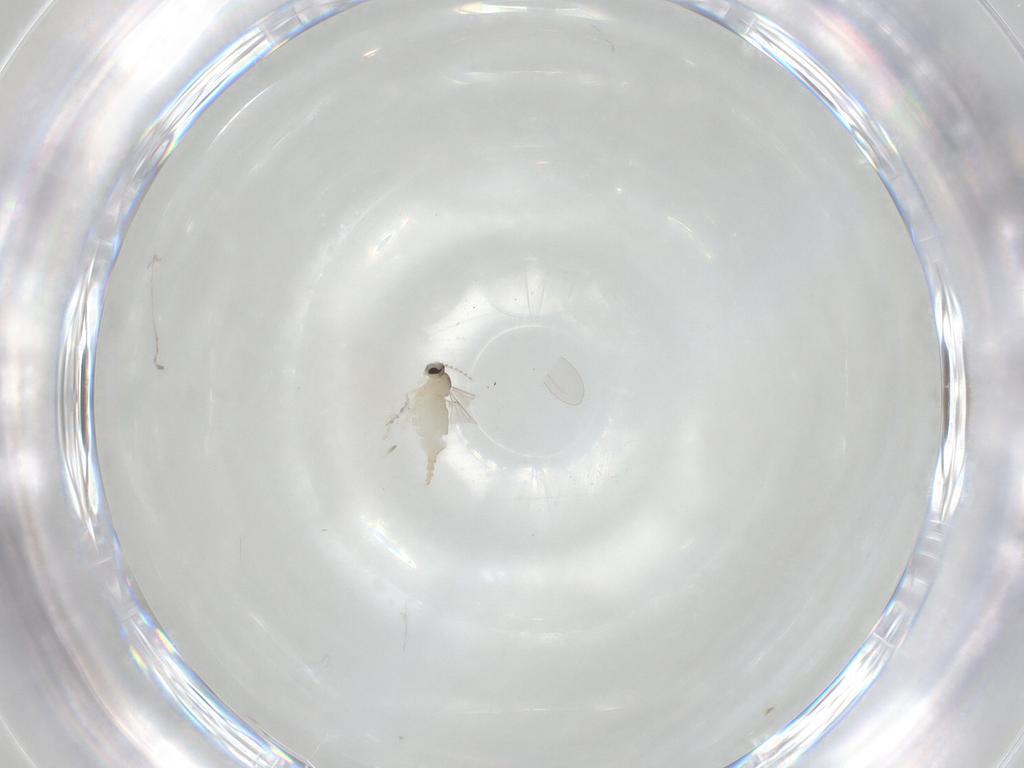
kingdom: Animalia
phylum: Arthropoda
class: Insecta
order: Diptera
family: Cecidomyiidae
